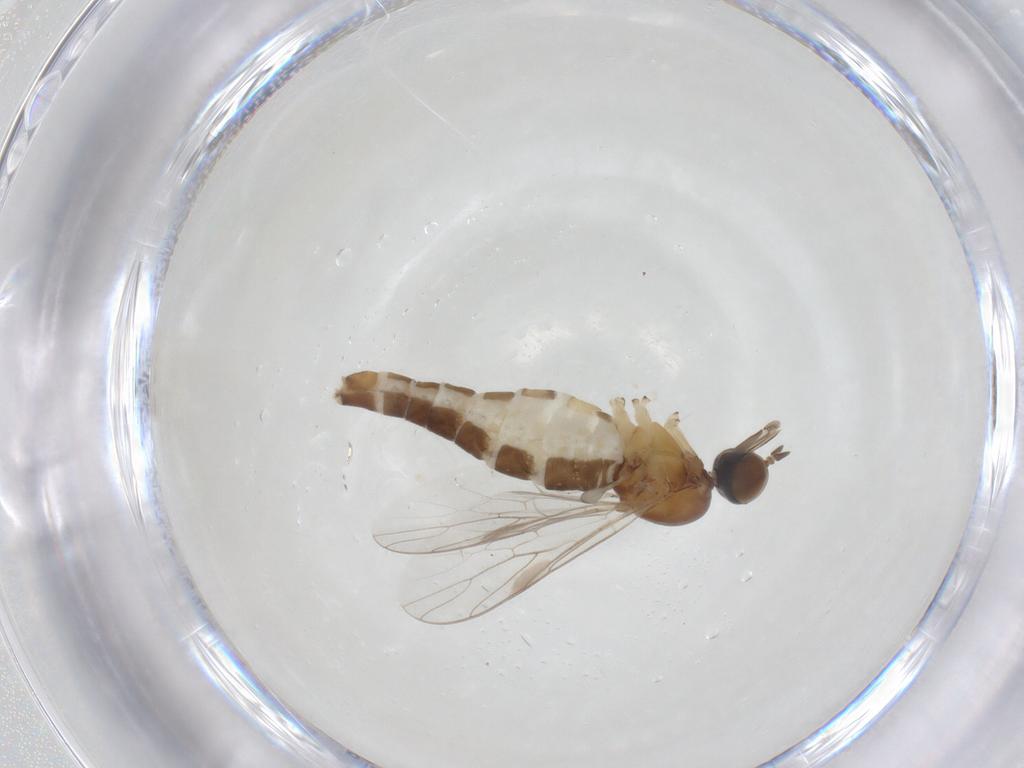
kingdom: Animalia
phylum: Arthropoda
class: Insecta
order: Diptera
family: Scenopinidae
